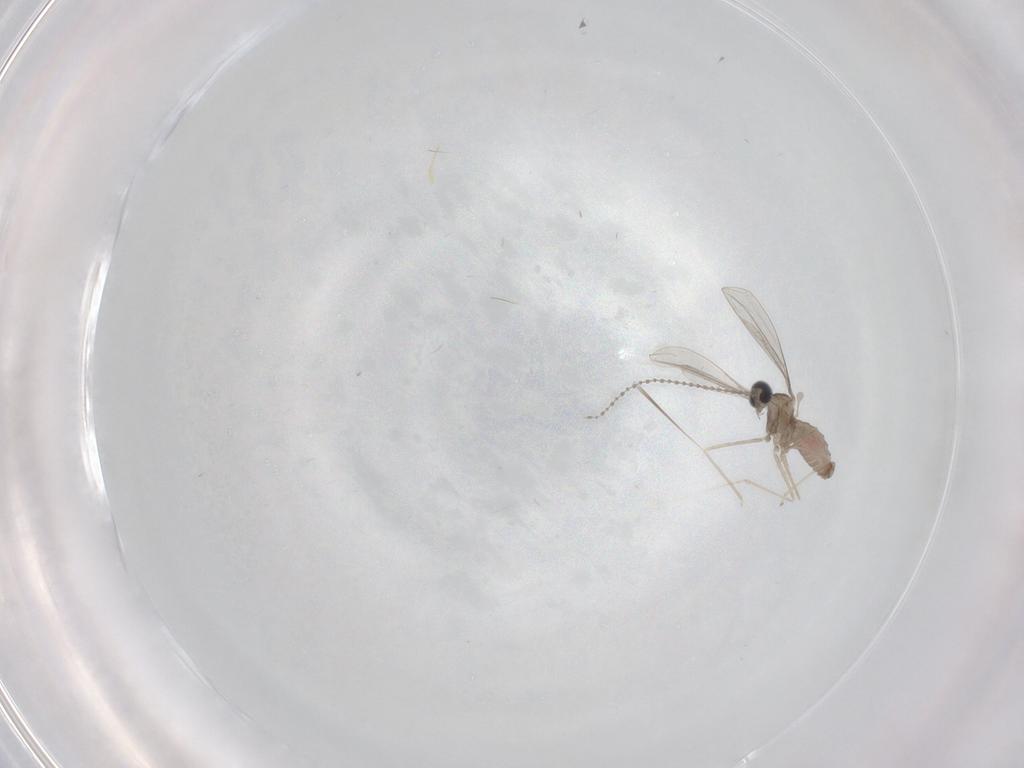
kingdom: Animalia
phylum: Arthropoda
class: Insecta
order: Diptera
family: Cecidomyiidae
